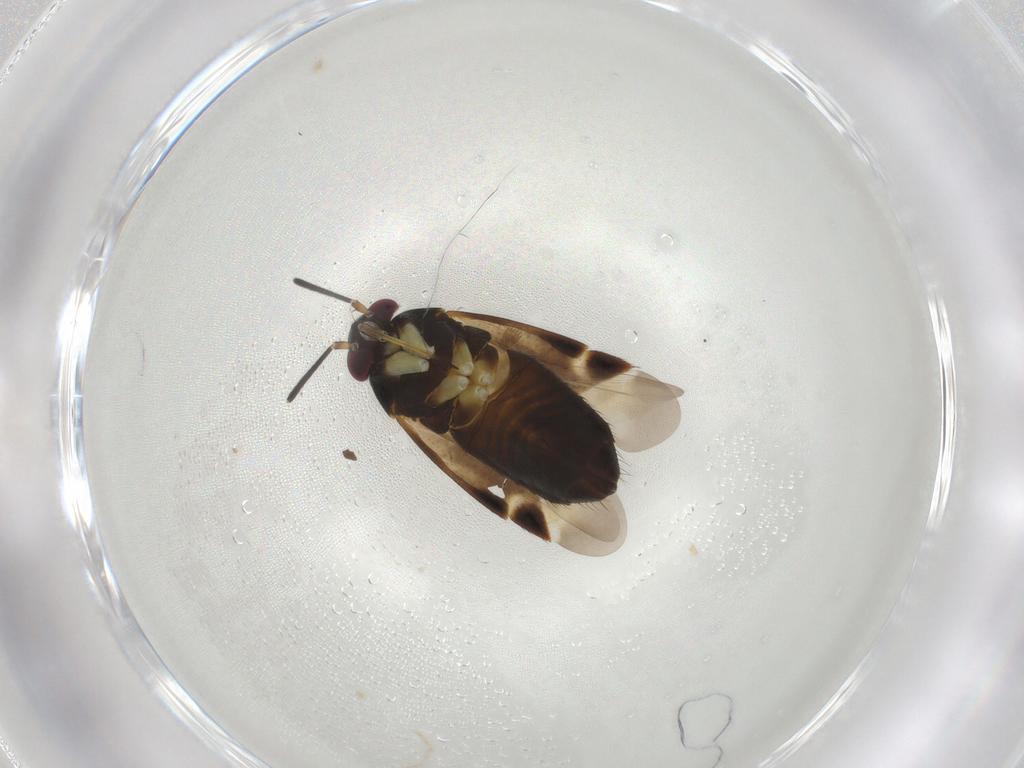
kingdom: Animalia
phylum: Arthropoda
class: Insecta
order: Hemiptera
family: Miridae
